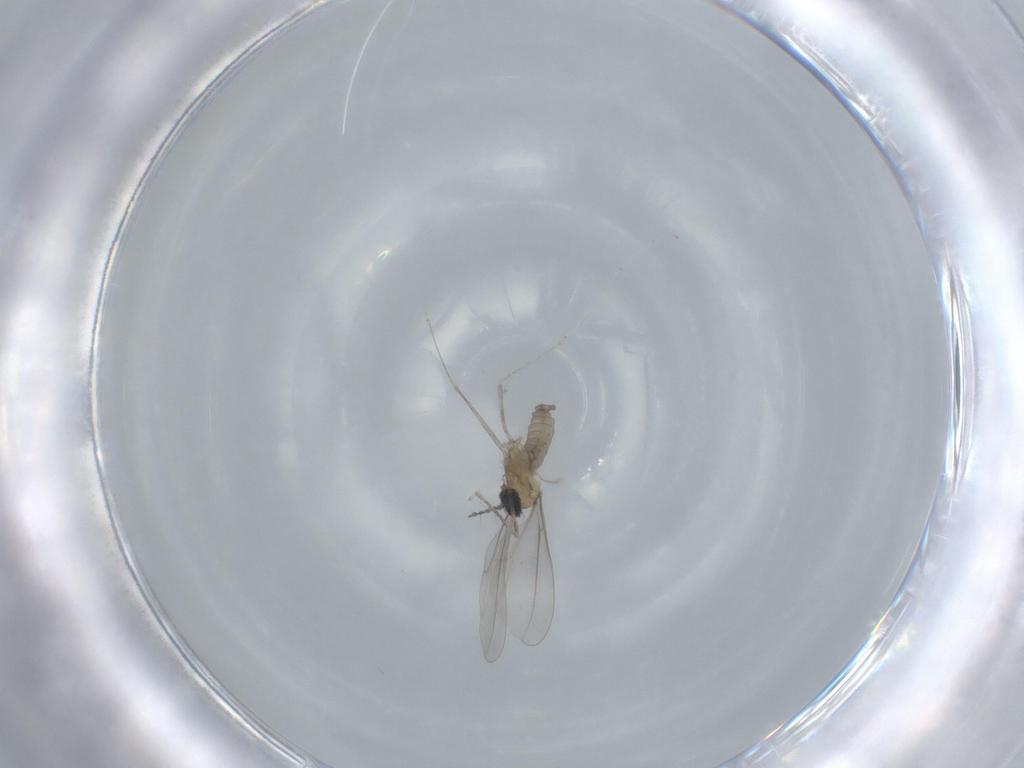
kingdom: Animalia
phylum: Arthropoda
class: Insecta
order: Diptera
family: Cecidomyiidae
